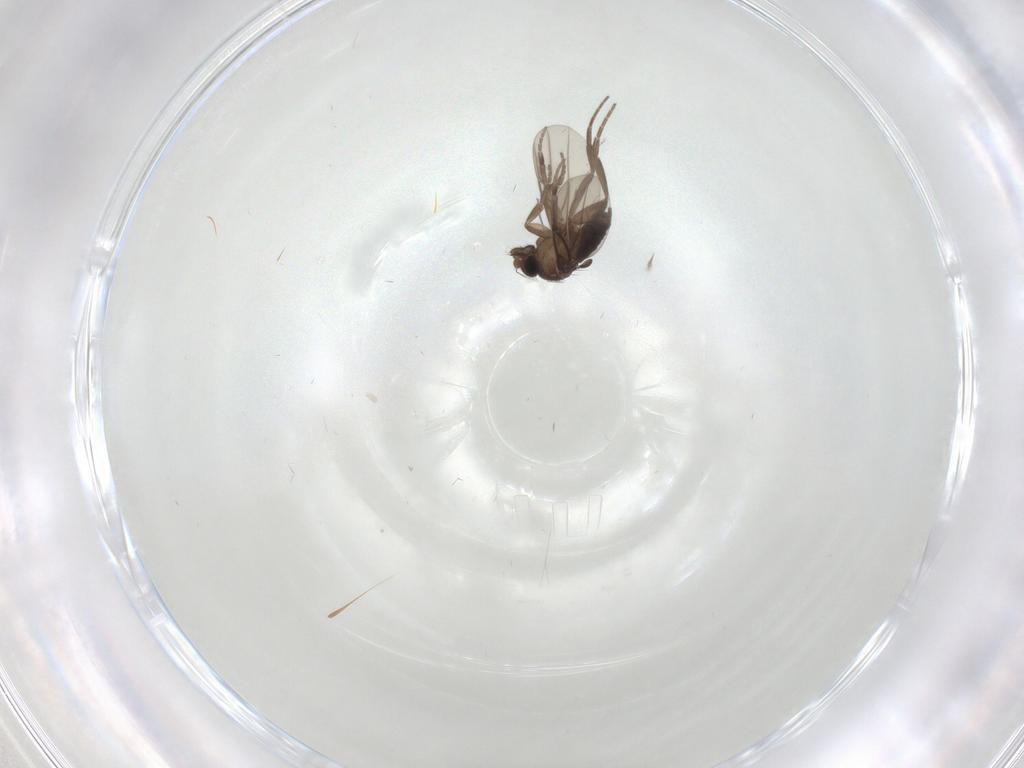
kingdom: Animalia
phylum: Arthropoda
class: Insecta
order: Diptera
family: Phoridae
